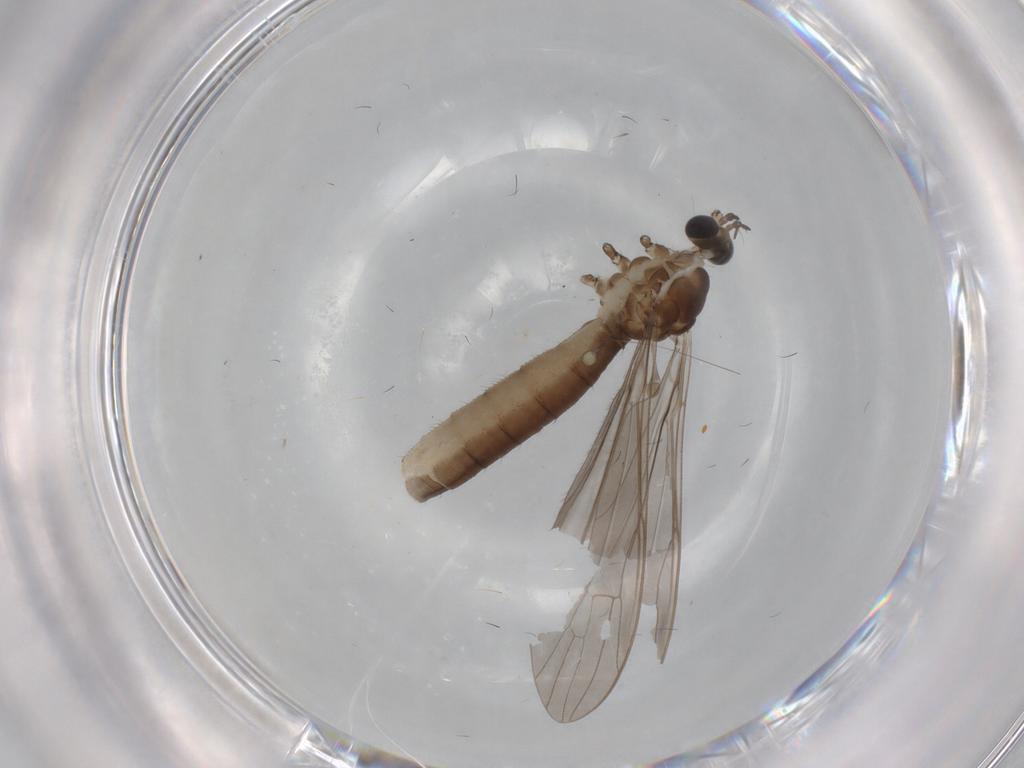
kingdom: Animalia
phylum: Arthropoda
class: Insecta
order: Diptera
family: Limoniidae
